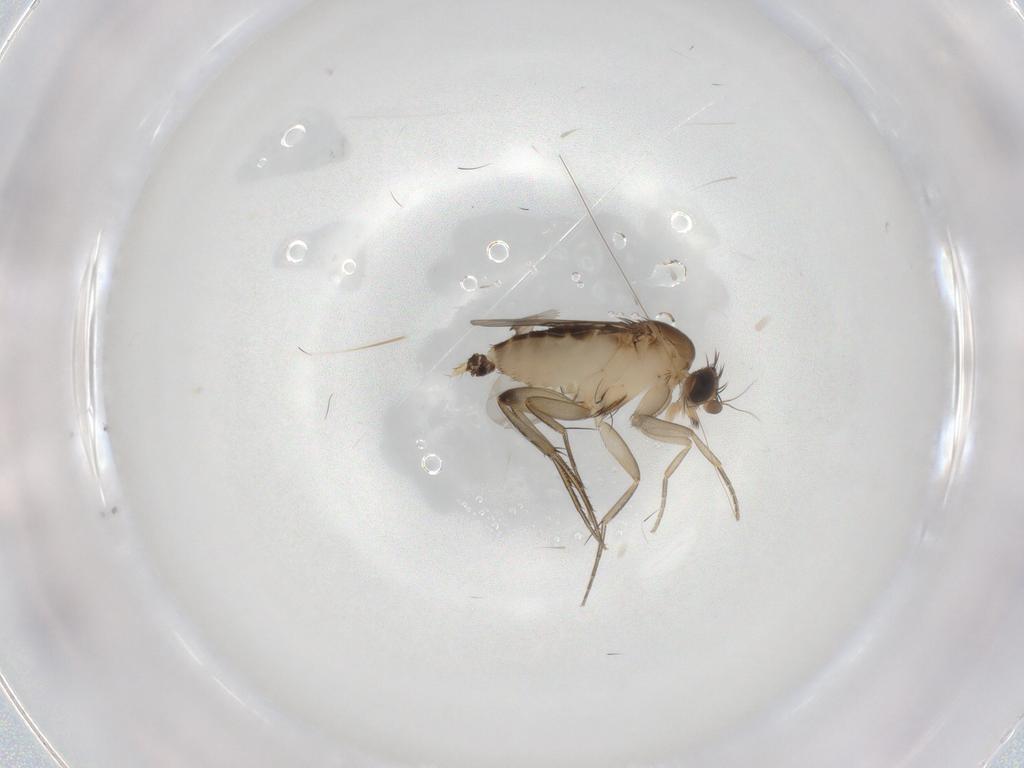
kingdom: Animalia
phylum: Arthropoda
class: Insecta
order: Diptera
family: Phoridae
